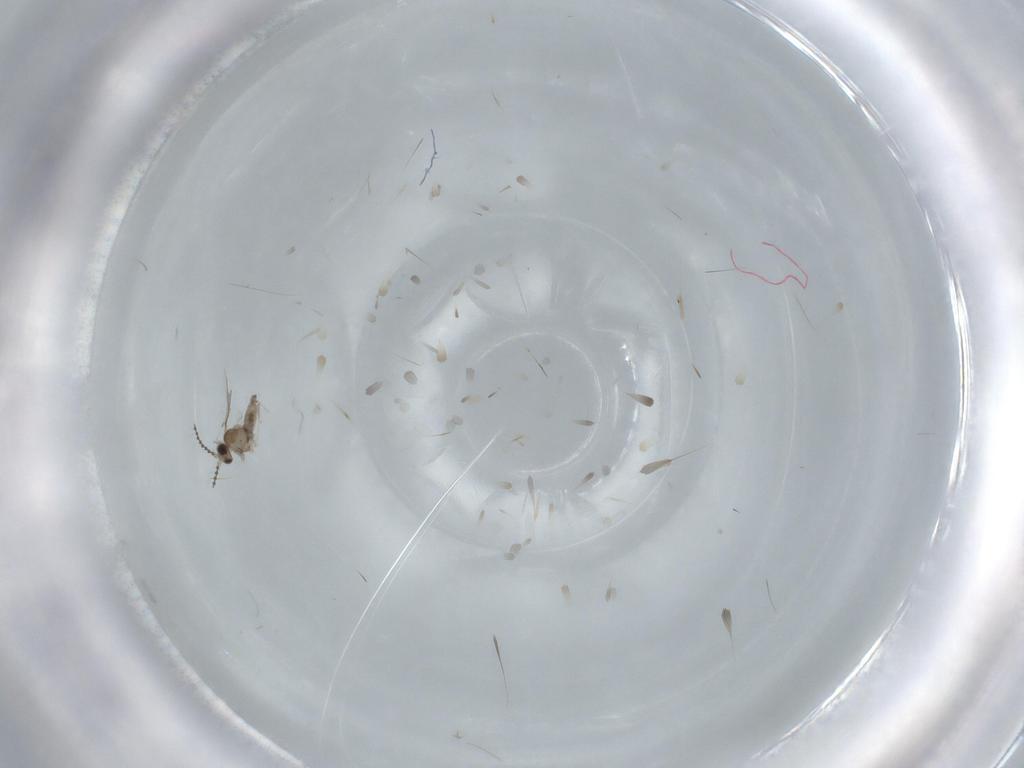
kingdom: Animalia
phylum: Arthropoda
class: Insecta
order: Diptera
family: Cecidomyiidae
